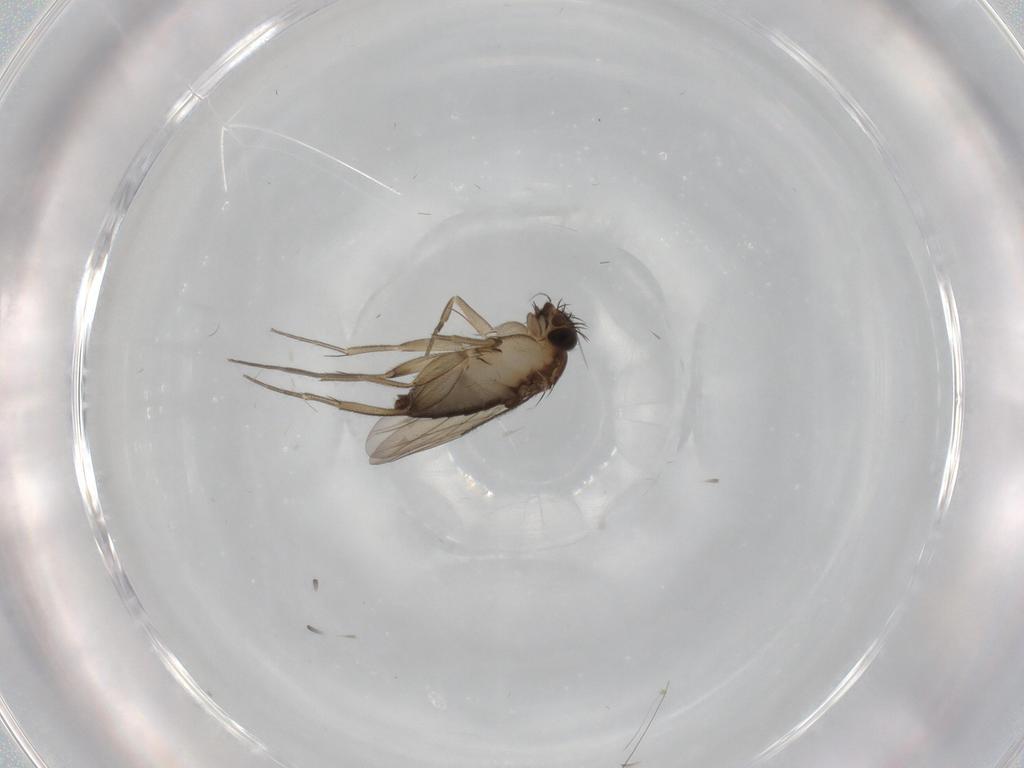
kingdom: Animalia
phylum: Arthropoda
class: Insecta
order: Diptera
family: Phoridae
